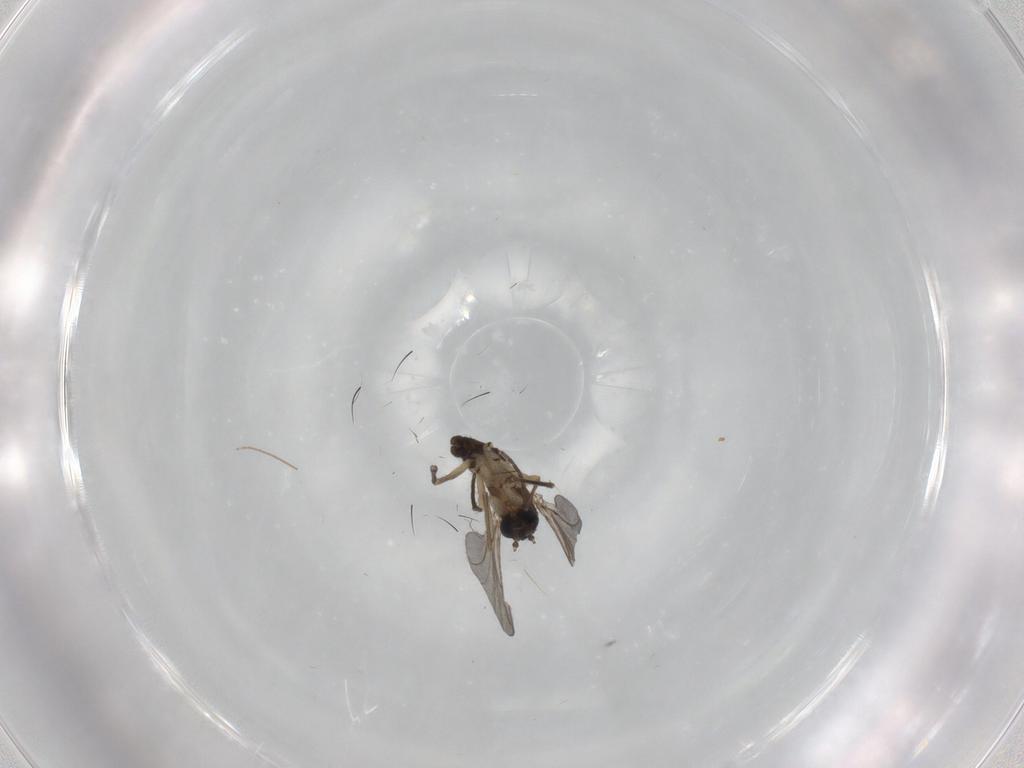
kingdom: Animalia
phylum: Arthropoda
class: Insecta
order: Diptera
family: Sciaridae
